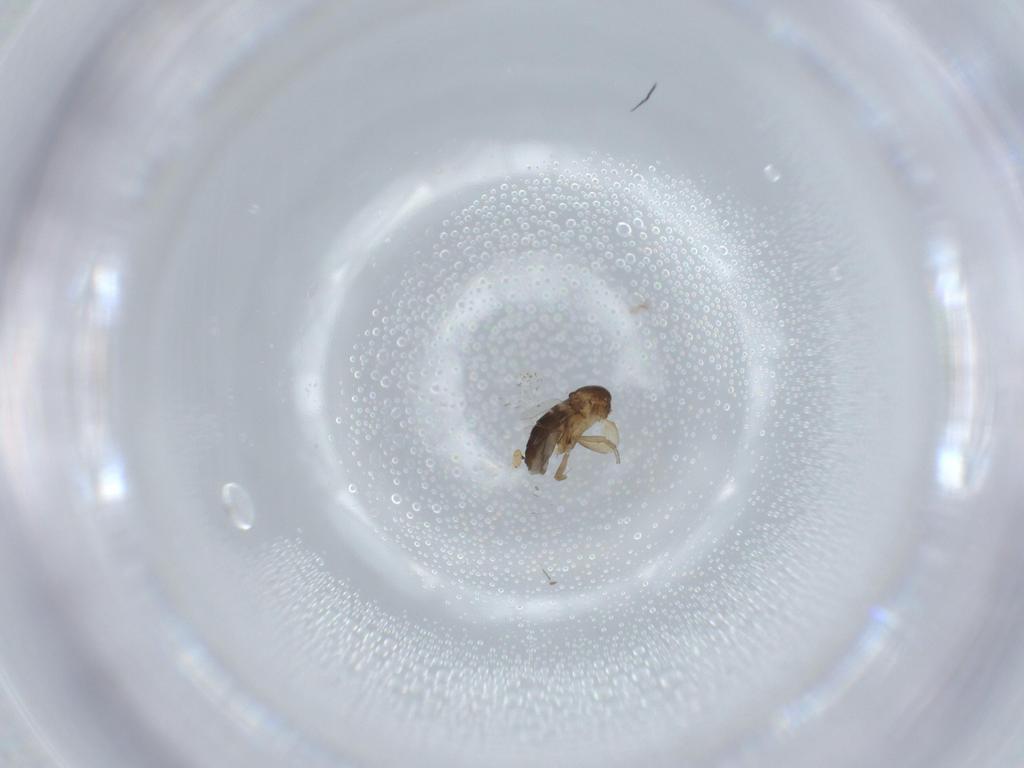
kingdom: Animalia
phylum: Arthropoda
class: Insecta
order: Diptera
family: Phoridae
